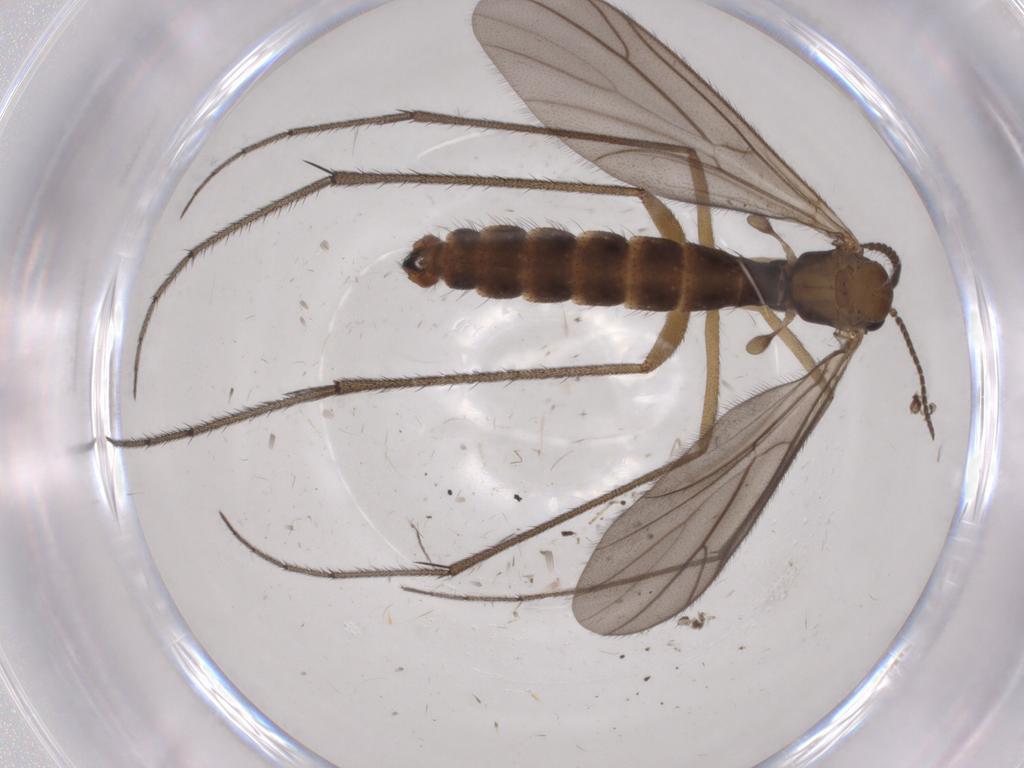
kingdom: Animalia
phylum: Arthropoda
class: Insecta
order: Diptera
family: Ditomyiidae
